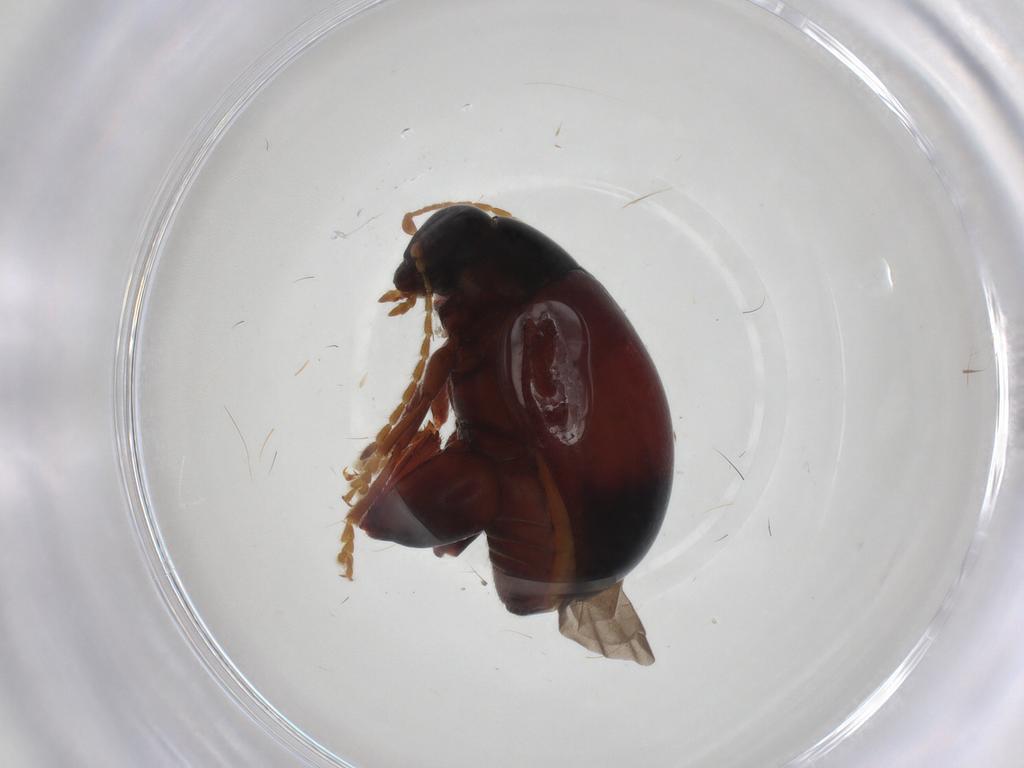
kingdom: Animalia
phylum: Arthropoda
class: Insecta
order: Coleoptera
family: Chrysomelidae
